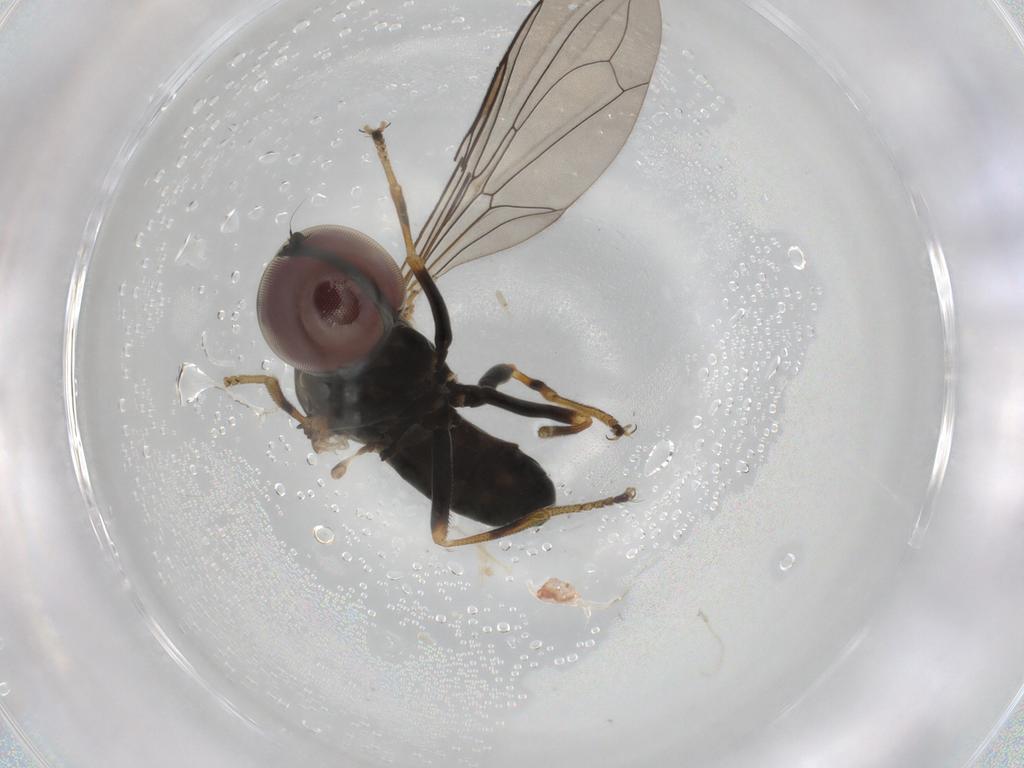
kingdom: Animalia
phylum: Arthropoda
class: Insecta
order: Diptera
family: Muscidae
